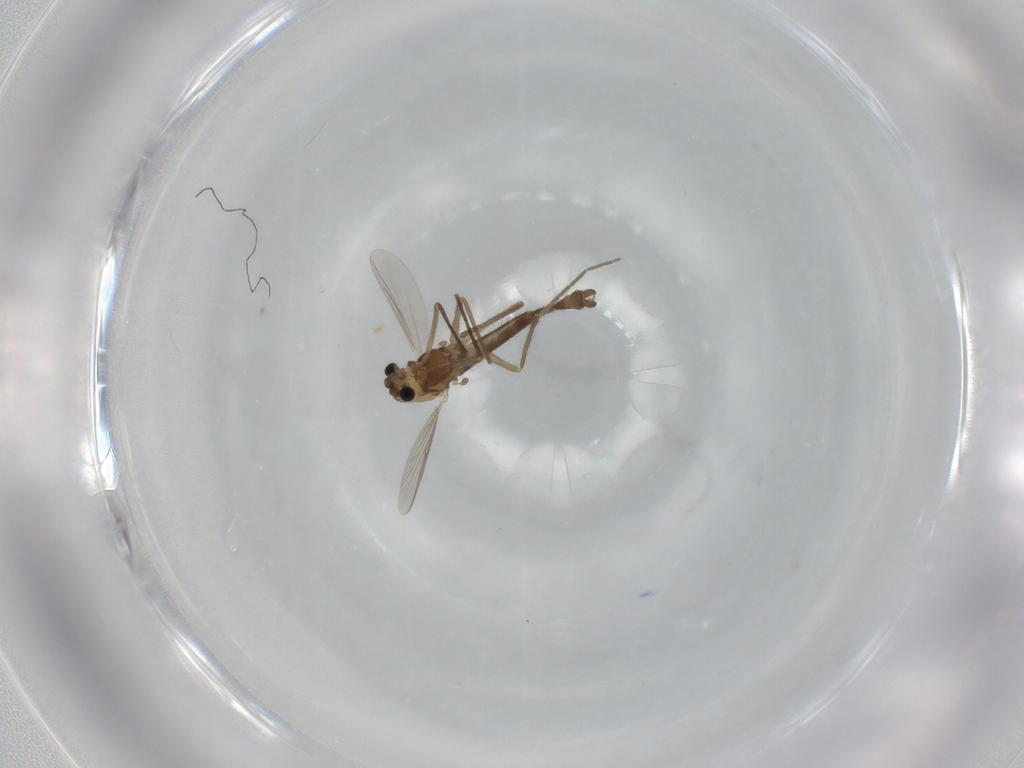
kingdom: Animalia
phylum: Arthropoda
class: Insecta
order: Diptera
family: Chironomidae
